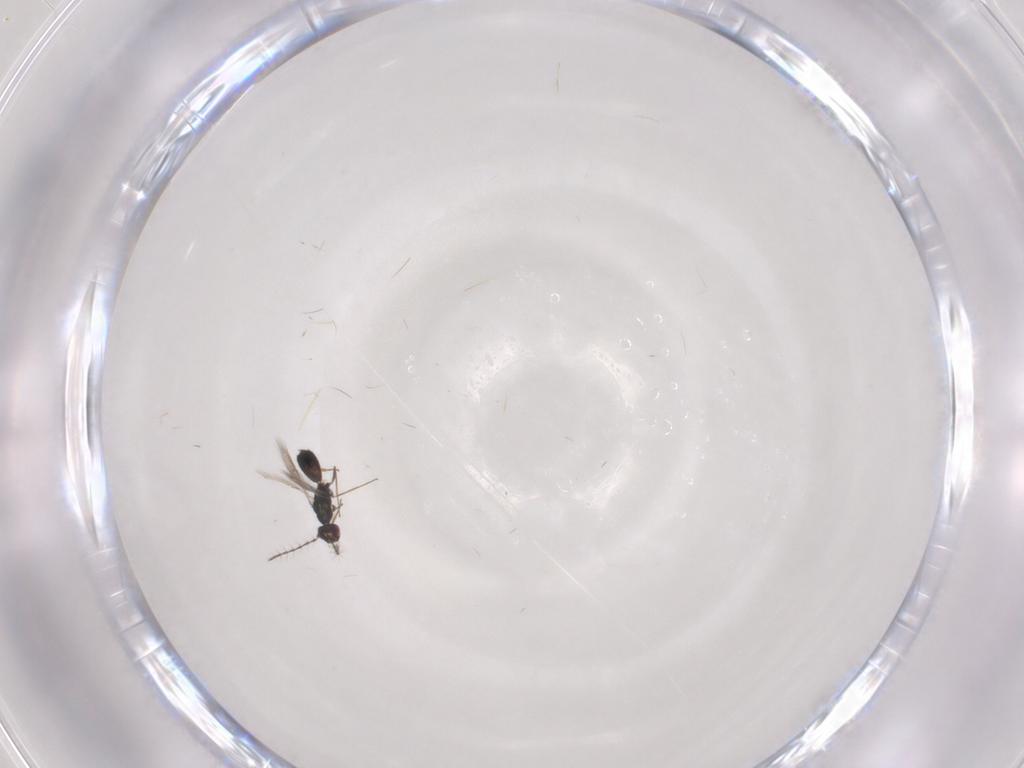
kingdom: Animalia
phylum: Arthropoda
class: Insecta
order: Hymenoptera
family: Pteromalidae
